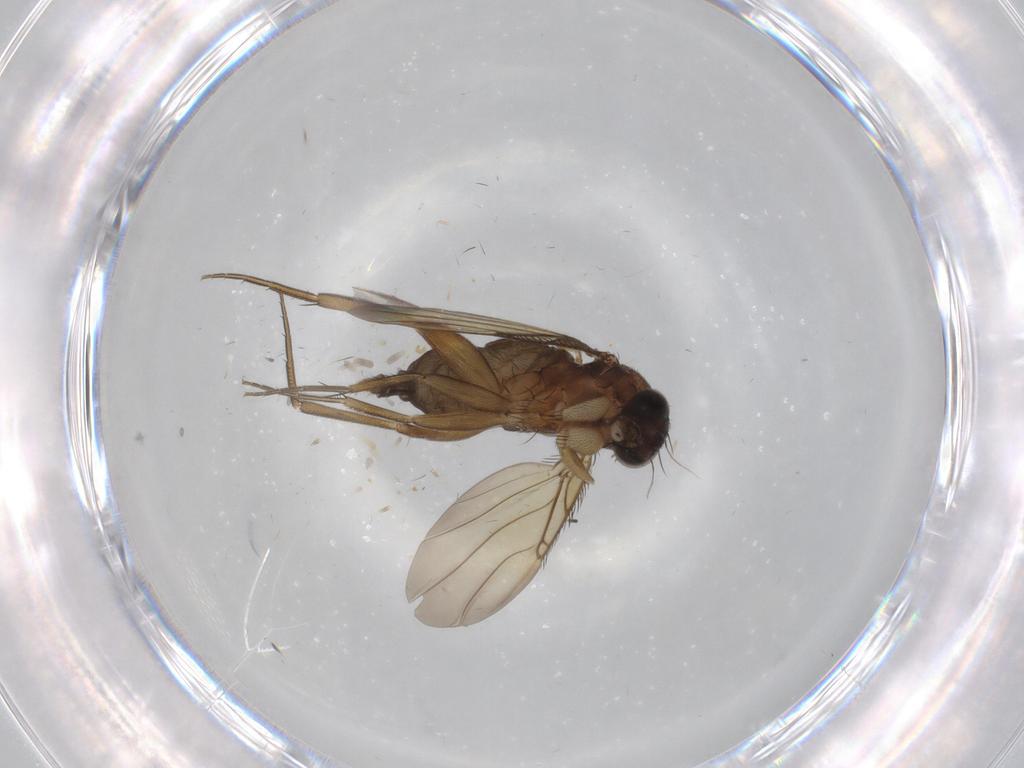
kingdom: Animalia
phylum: Arthropoda
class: Insecta
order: Diptera
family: Phoridae
